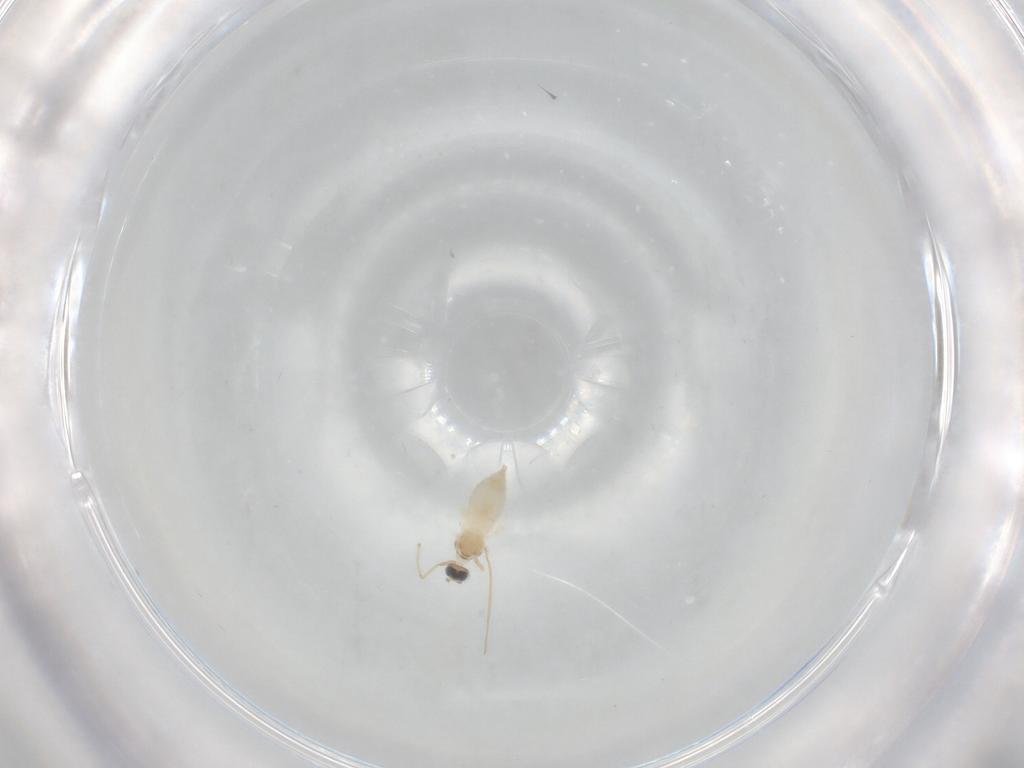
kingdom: Animalia
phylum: Arthropoda
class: Insecta
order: Diptera
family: Cecidomyiidae
